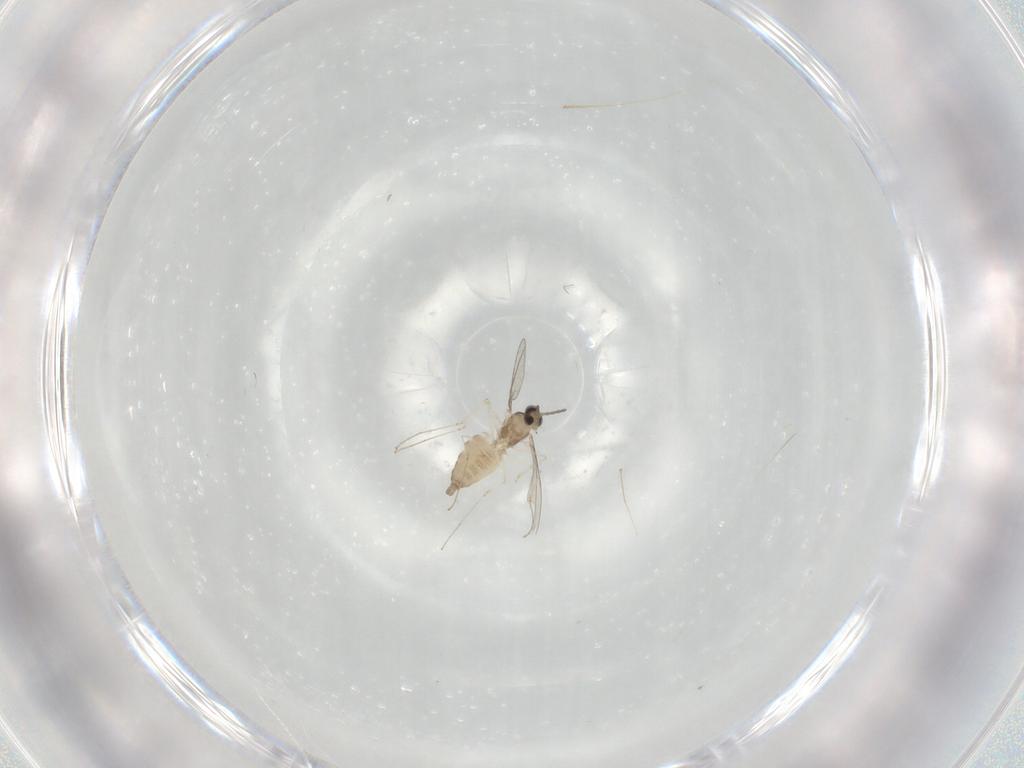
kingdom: Animalia
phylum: Arthropoda
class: Insecta
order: Diptera
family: Cecidomyiidae
